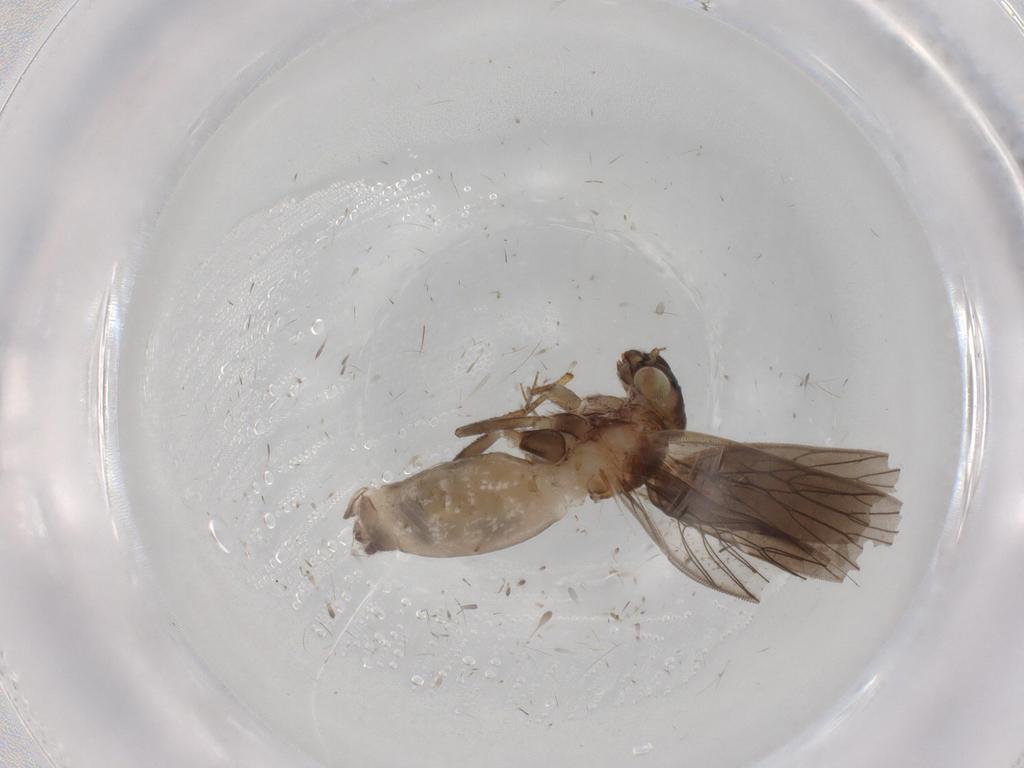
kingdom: Animalia
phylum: Arthropoda
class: Insecta
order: Psocodea
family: Lepidopsocidae
